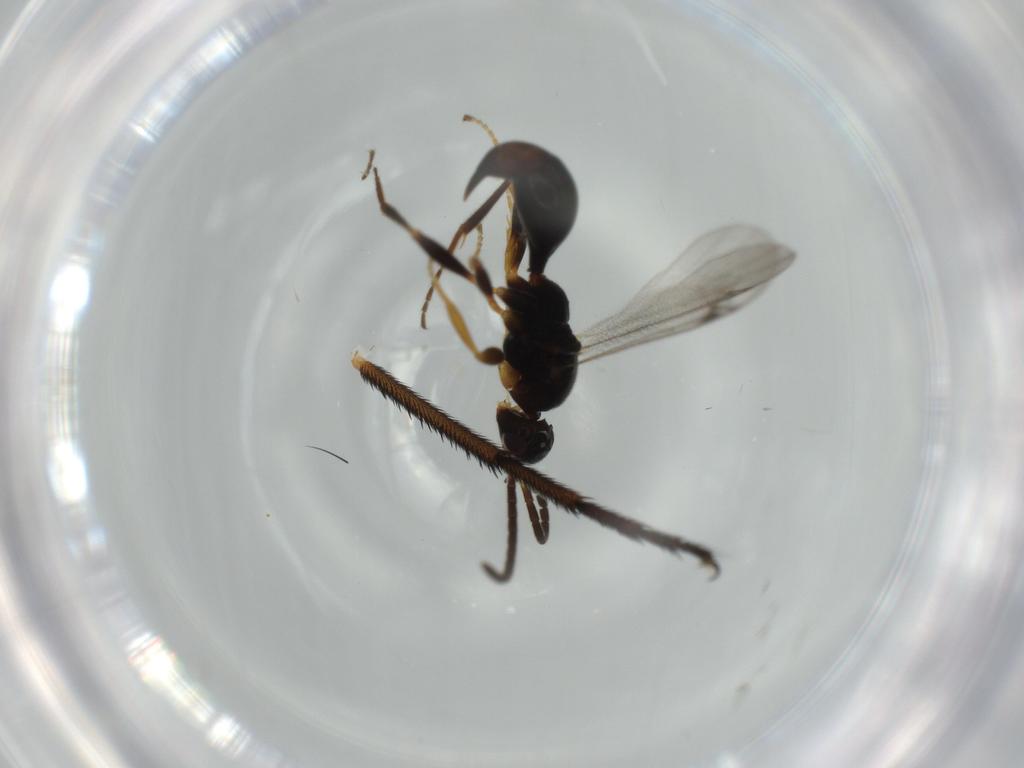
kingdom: Animalia
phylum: Arthropoda
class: Insecta
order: Hymenoptera
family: Proctotrupidae
